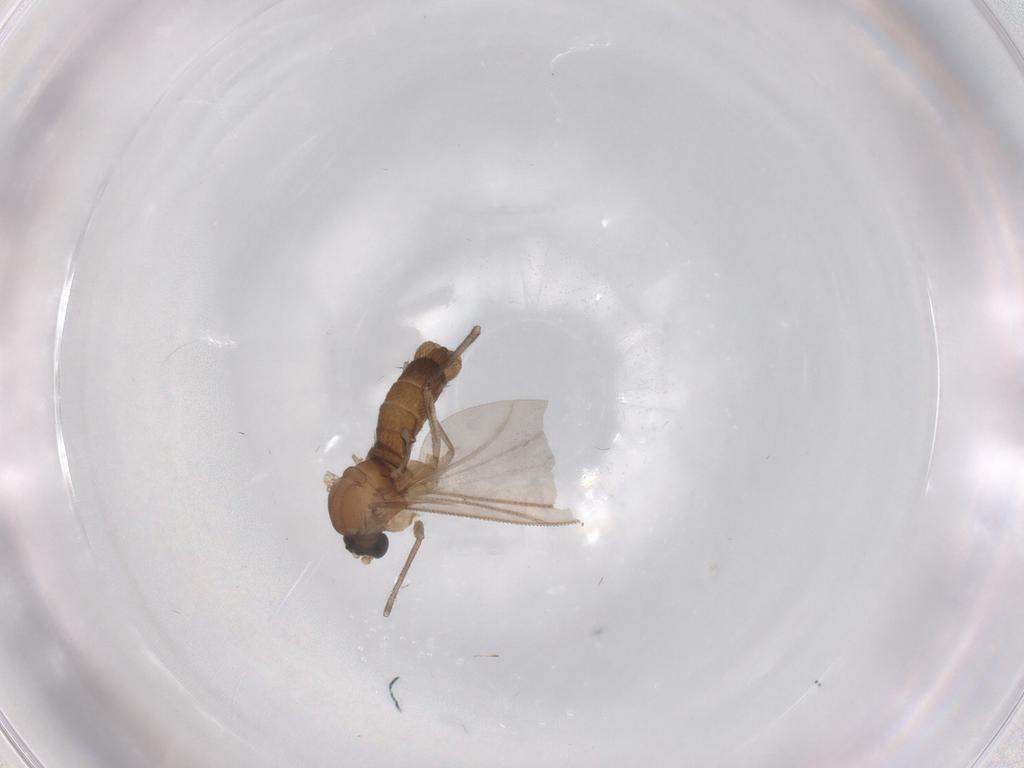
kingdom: Animalia
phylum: Arthropoda
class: Insecta
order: Diptera
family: Sciaridae
